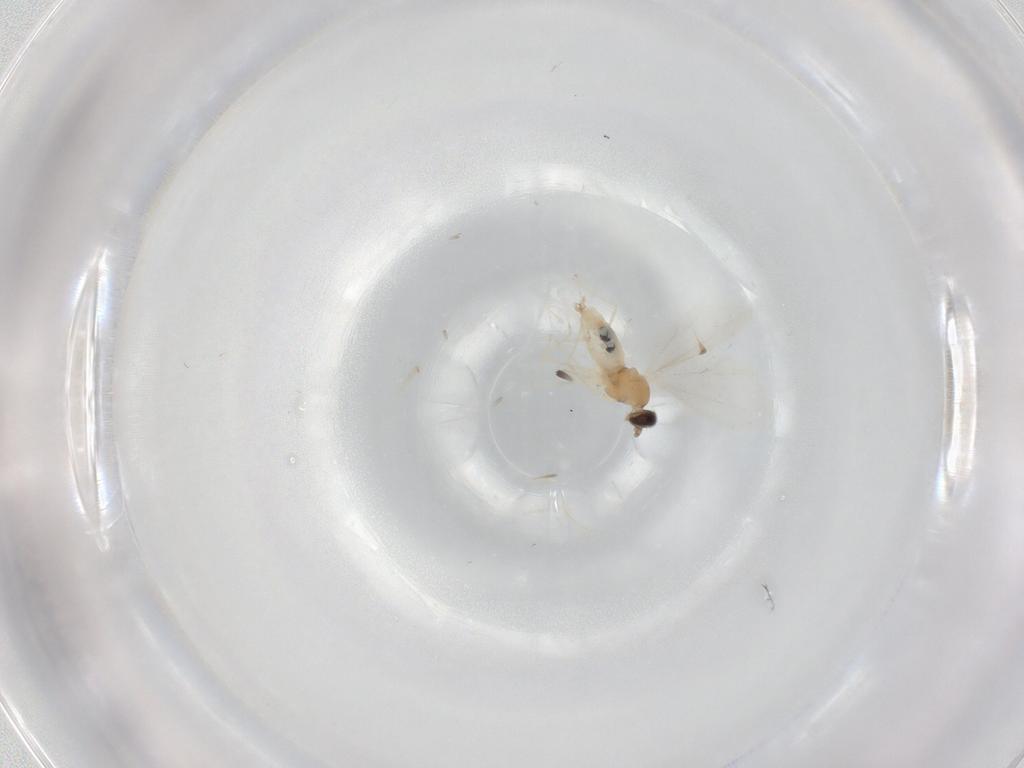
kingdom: Animalia
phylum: Arthropoda
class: Insecta
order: Diptera
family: Cecidomyiidae
